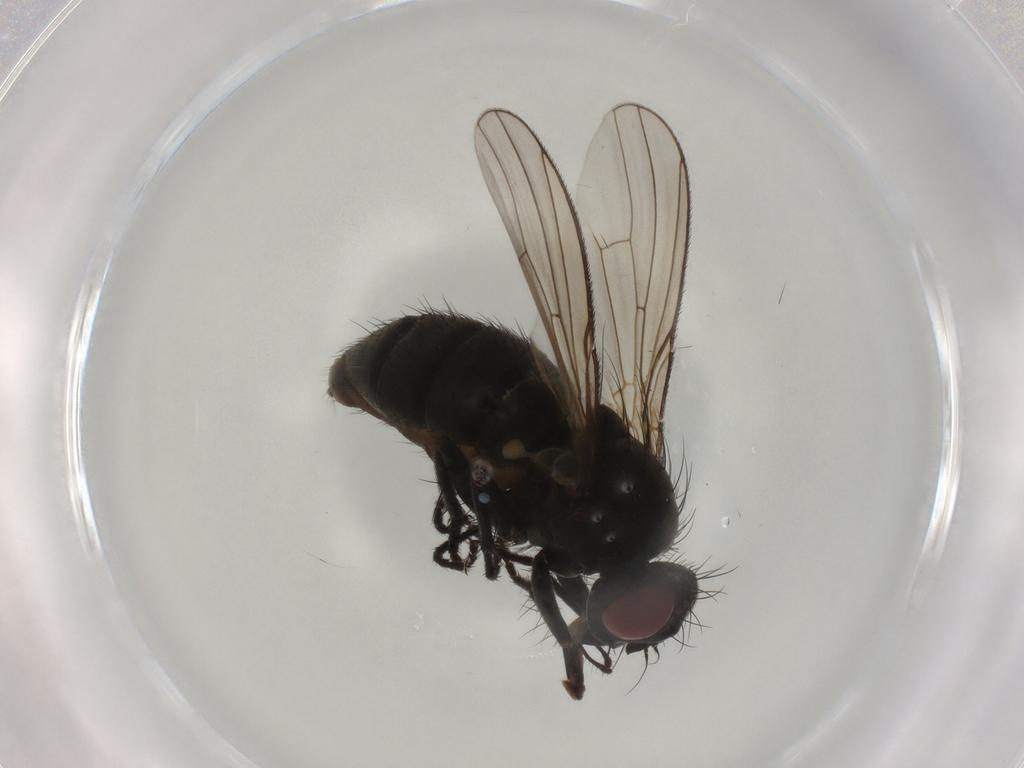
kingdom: Animalia
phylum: Arthropoda
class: Insecta
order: Diptera
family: Muscidae
